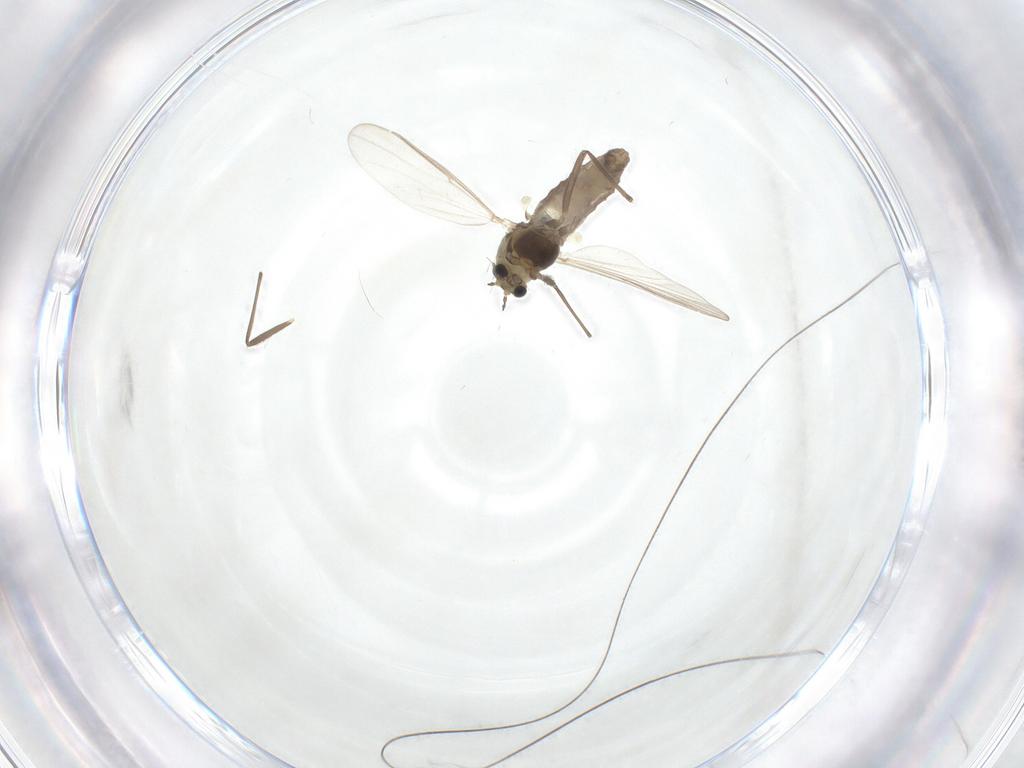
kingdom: Animalia
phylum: Arthropoda
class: Insecta
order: Diptera
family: Chironomidae
